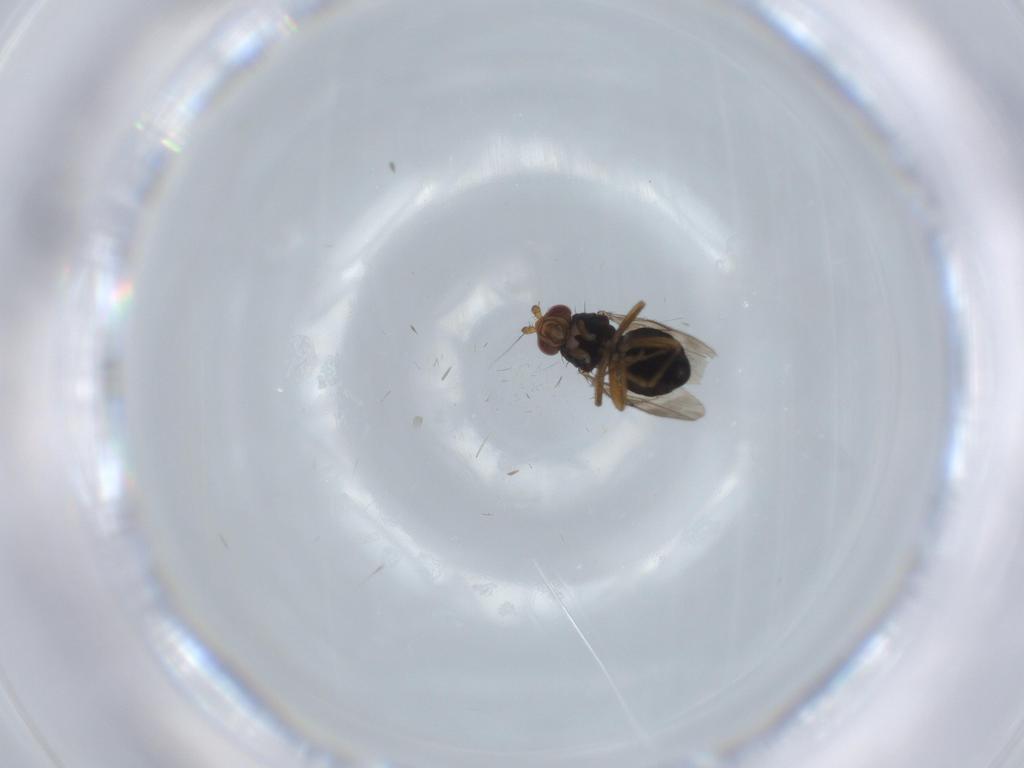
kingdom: Animalia
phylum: Arthropoda
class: Insecta
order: Diptera
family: Sphaeroceridae
